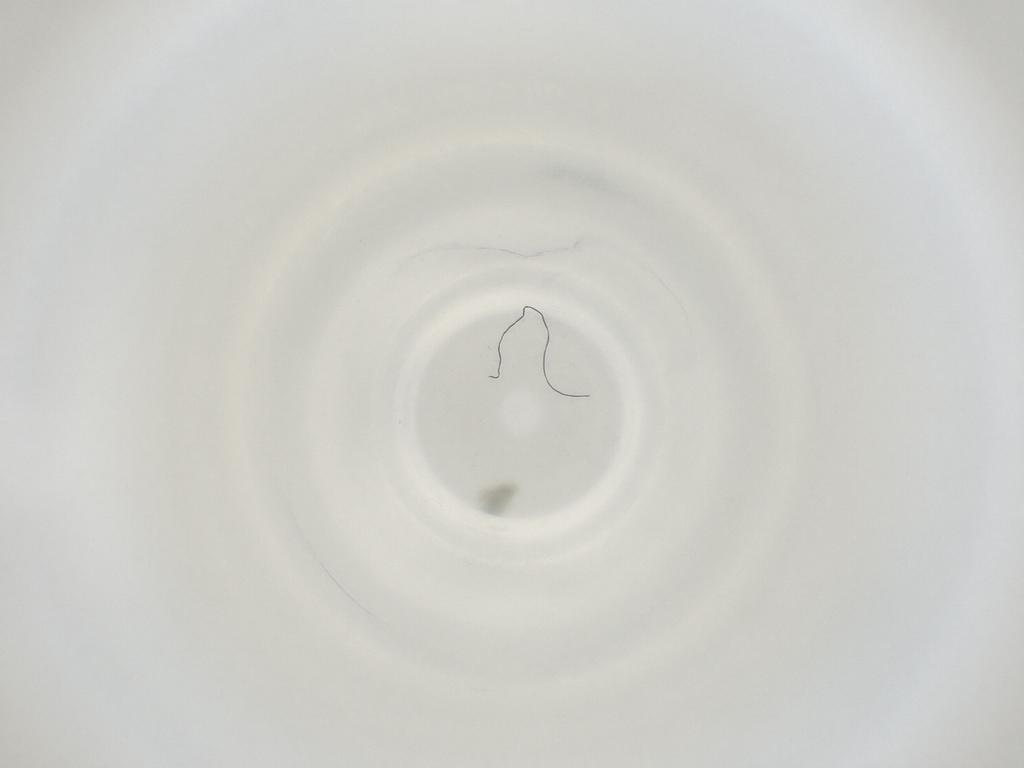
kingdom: Animalia
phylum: Arthropoda
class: Insecta
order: Diptera
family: Cecidomyiidae
